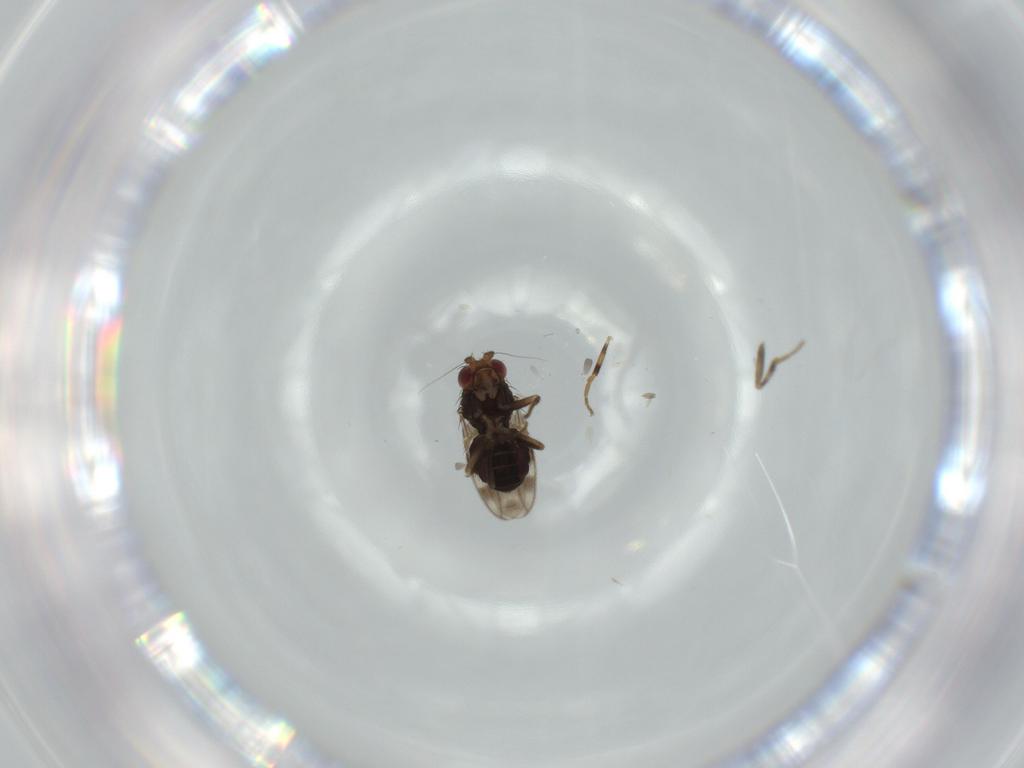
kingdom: Animalia
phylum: Arthropoda
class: Insecta
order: Diptera
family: Sphaeroceridae
